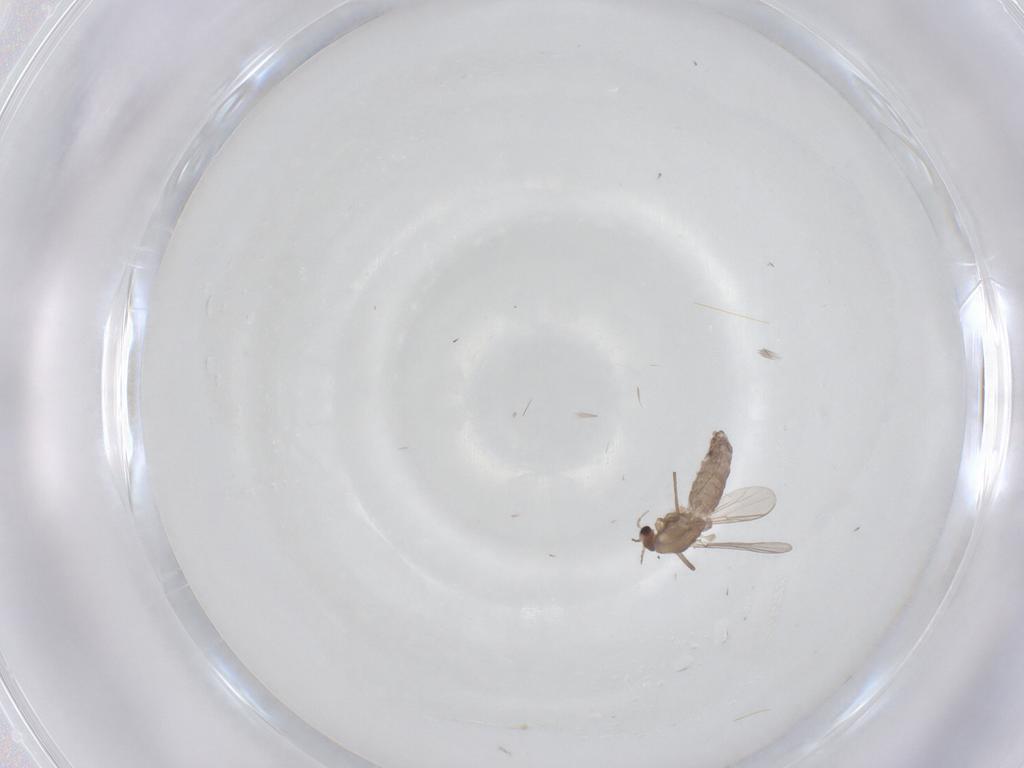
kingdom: Animalia
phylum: Arthropoda
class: Insecta
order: Diptera
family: Chironomidae
